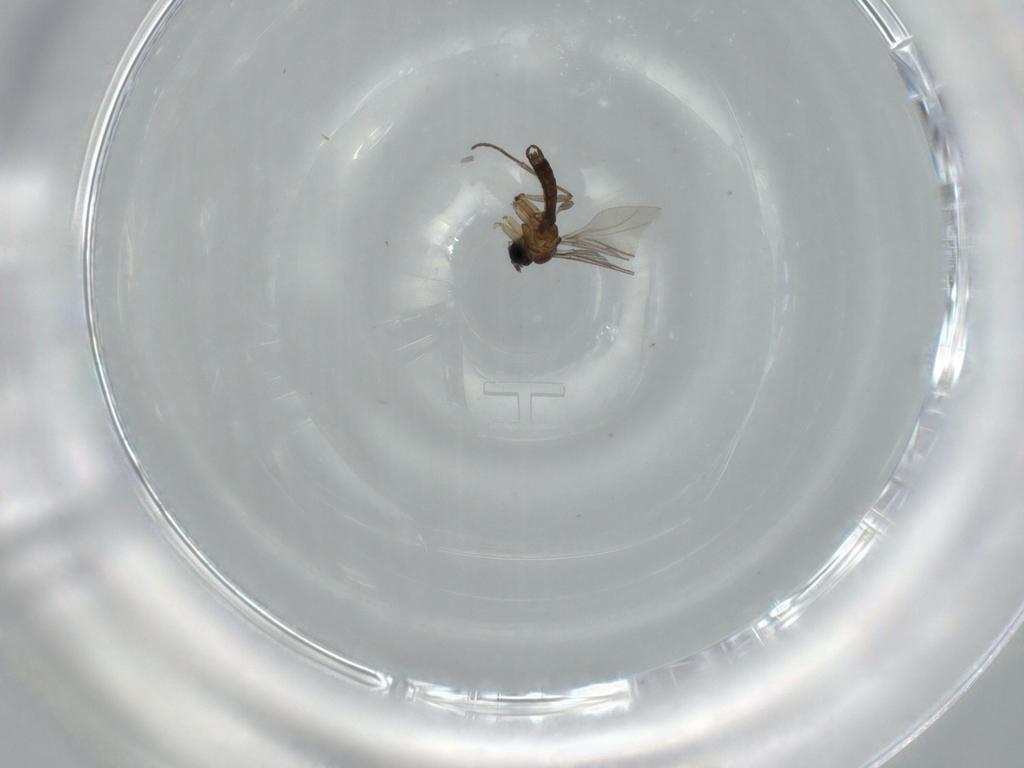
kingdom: Animalia
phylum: Arthropoda
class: Insecta
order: Diptera
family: Sciaridae
